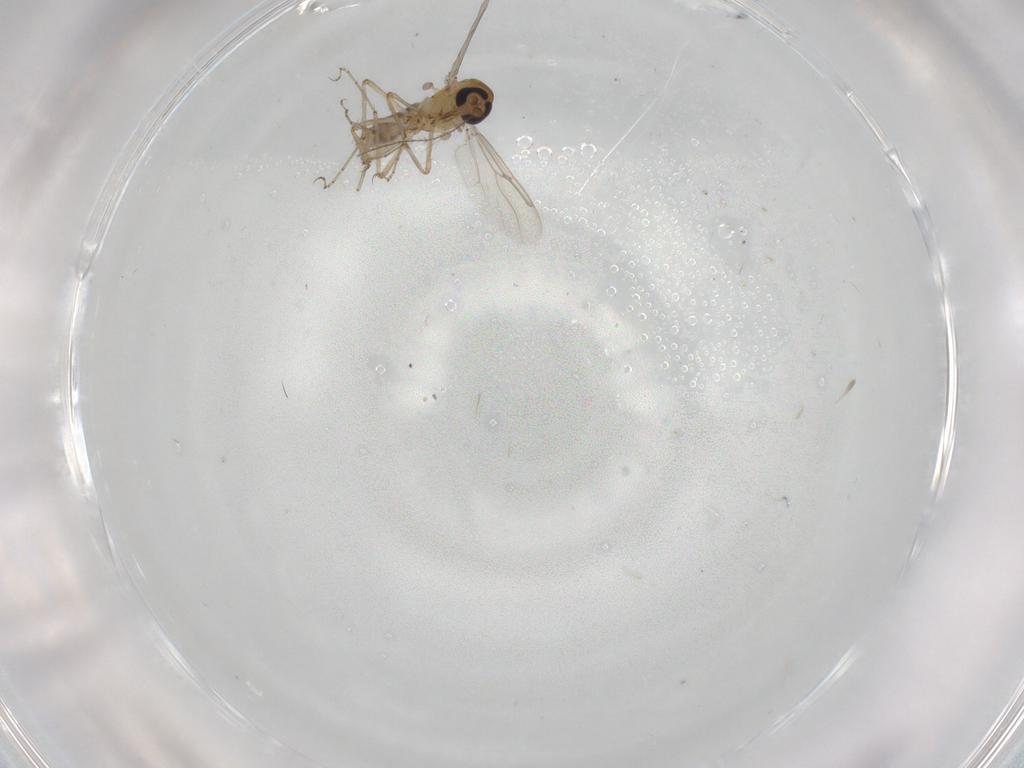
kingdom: Animalia
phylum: Arthropoda
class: Insecta
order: Diptera
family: Ceratopogonidae
